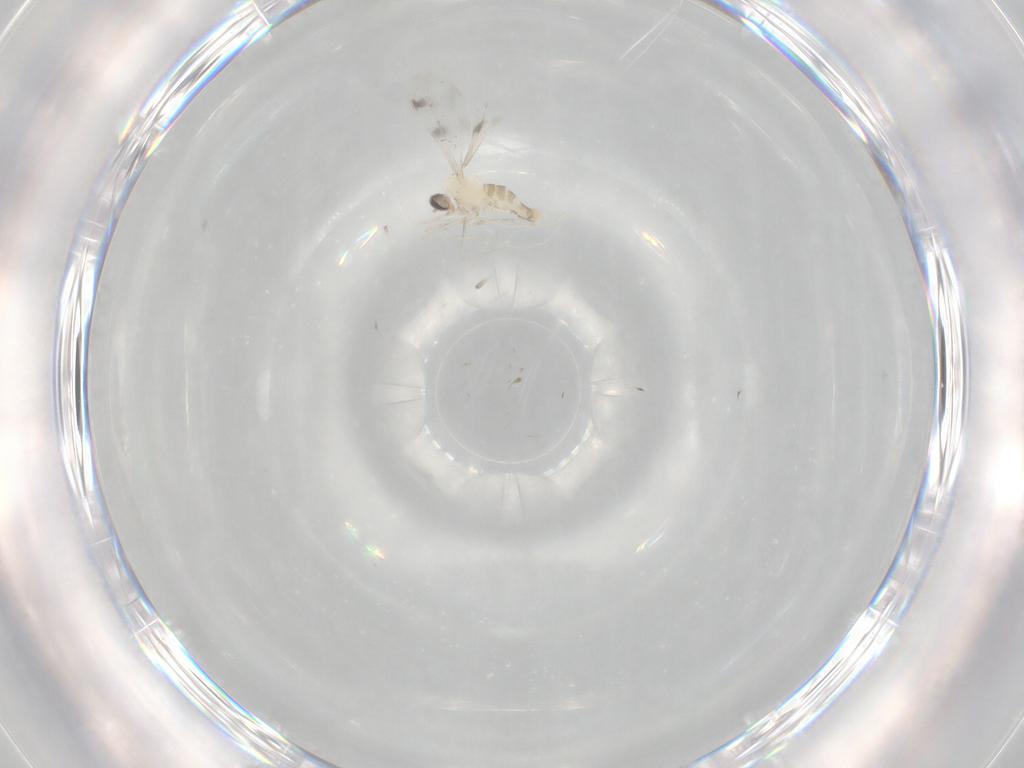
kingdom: Animalia
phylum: Arthropoda
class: Insecta
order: Diptera
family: Cecidomyiidae
